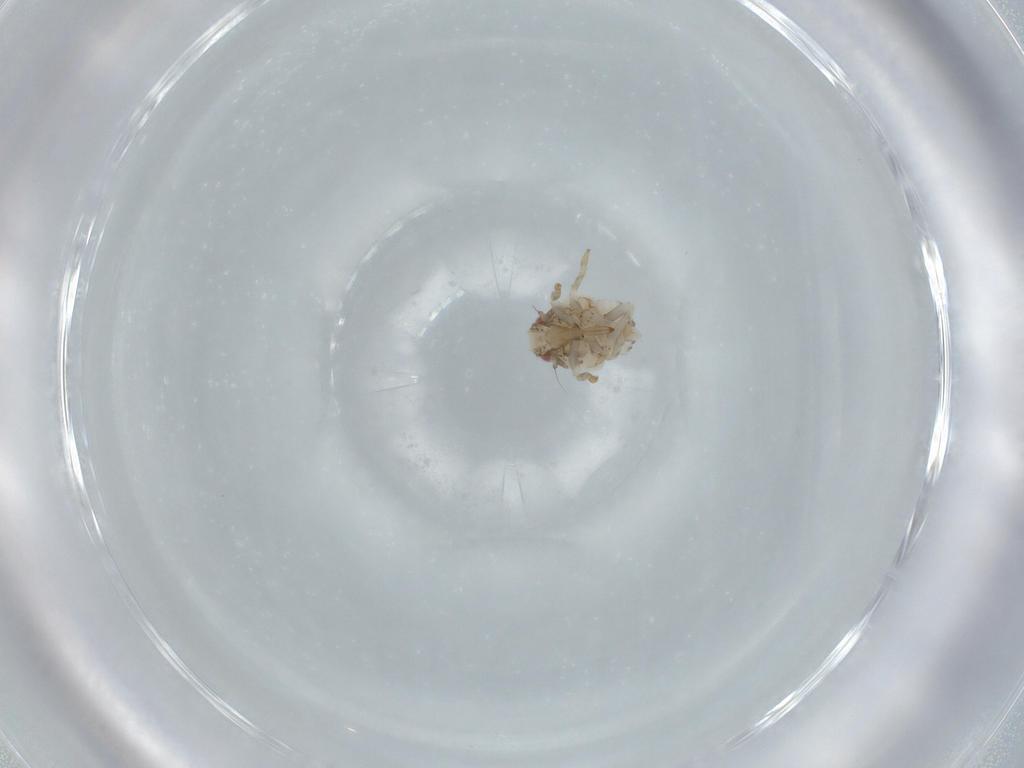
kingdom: Animalia
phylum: Arthropoda
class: Insecta
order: Hemiptera
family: Acanaloniidae
